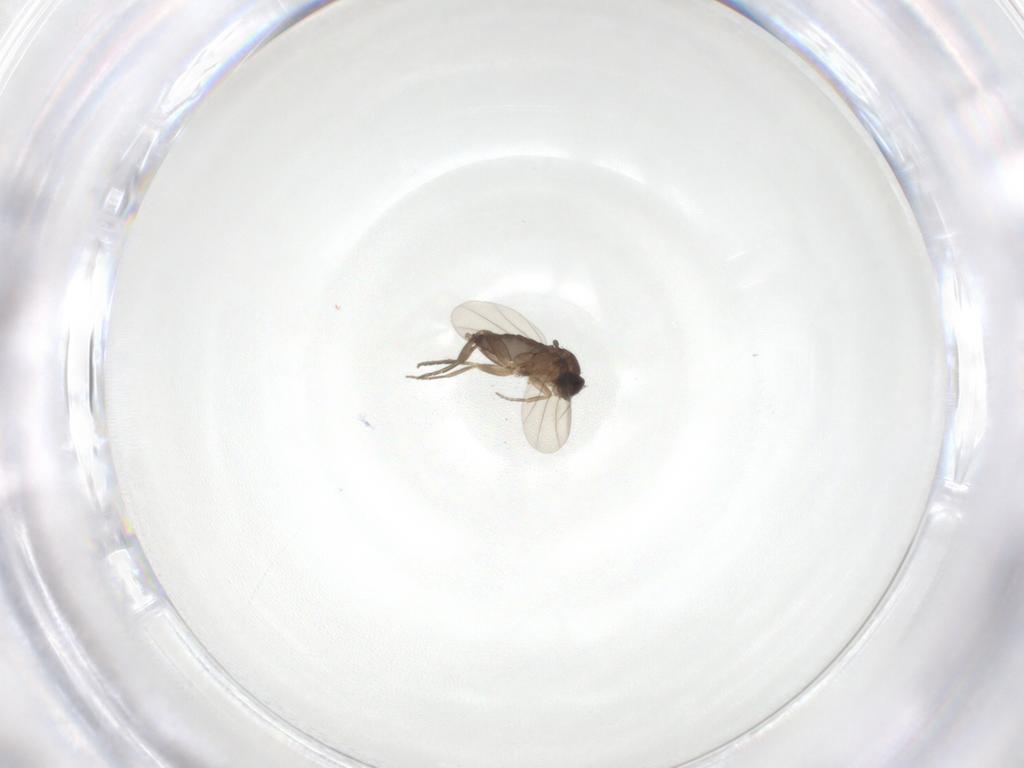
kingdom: Animalia
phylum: Arthropoda
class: Insecta
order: Diptera
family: Phoridae
